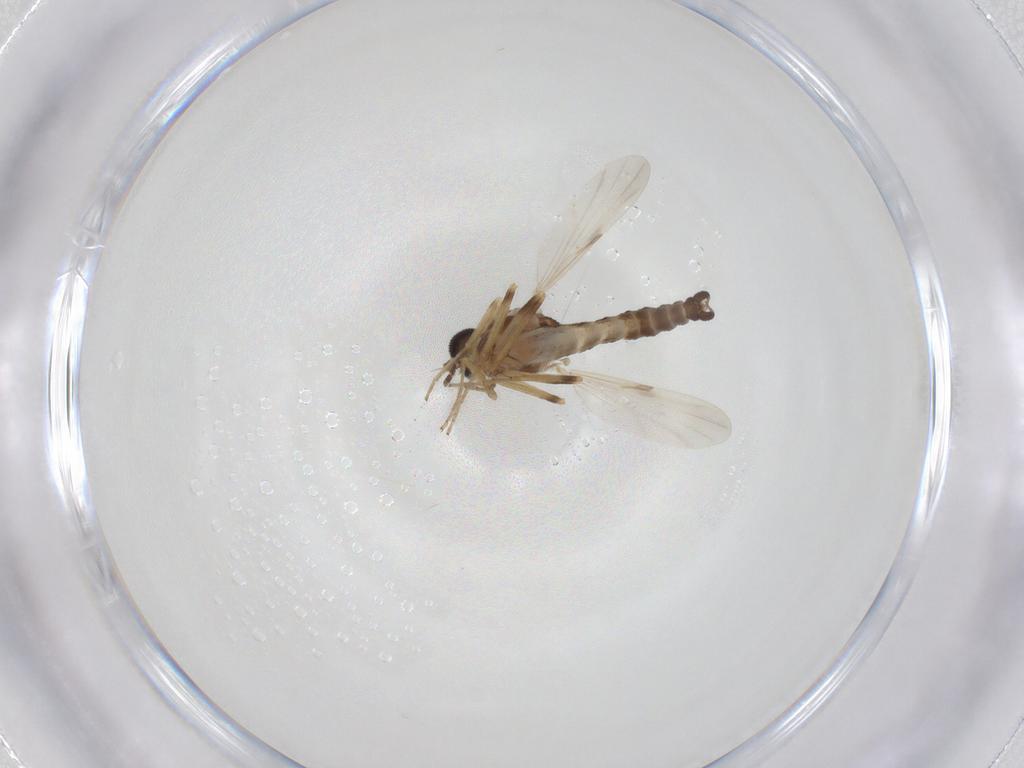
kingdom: Animalia
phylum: Arthropoda
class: Insecta
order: Diptera
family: Ceratopogonidae
